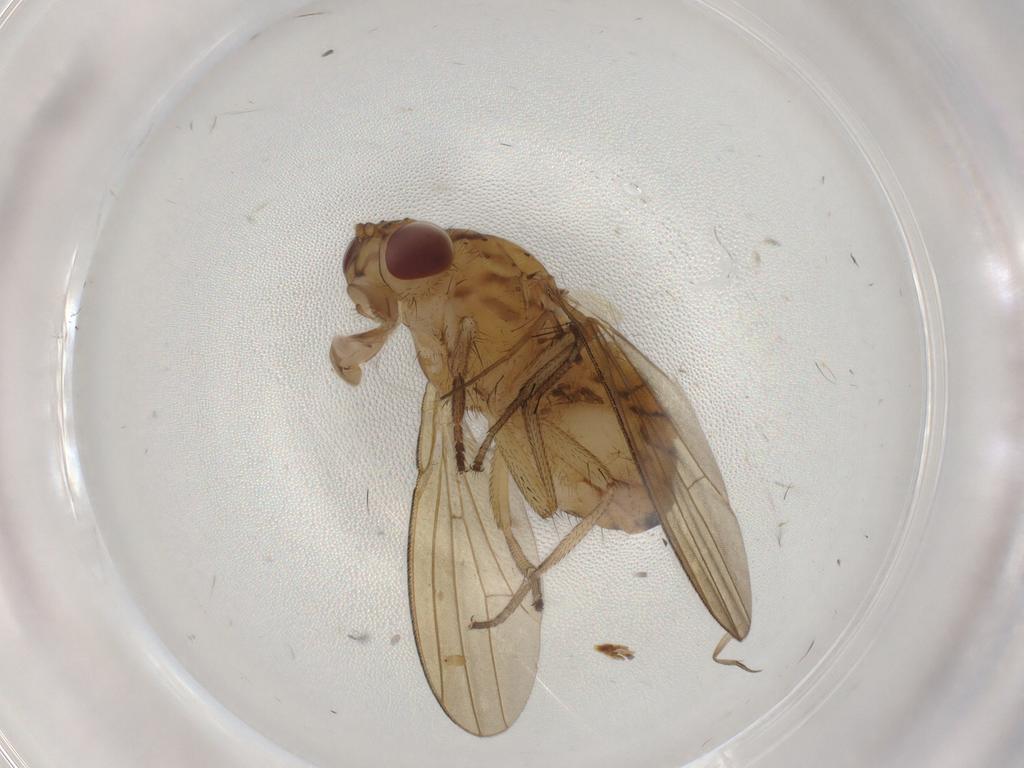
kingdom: Animalia
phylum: Arthropoda
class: Insecta
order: Diptera
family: Cecidomyiidae
